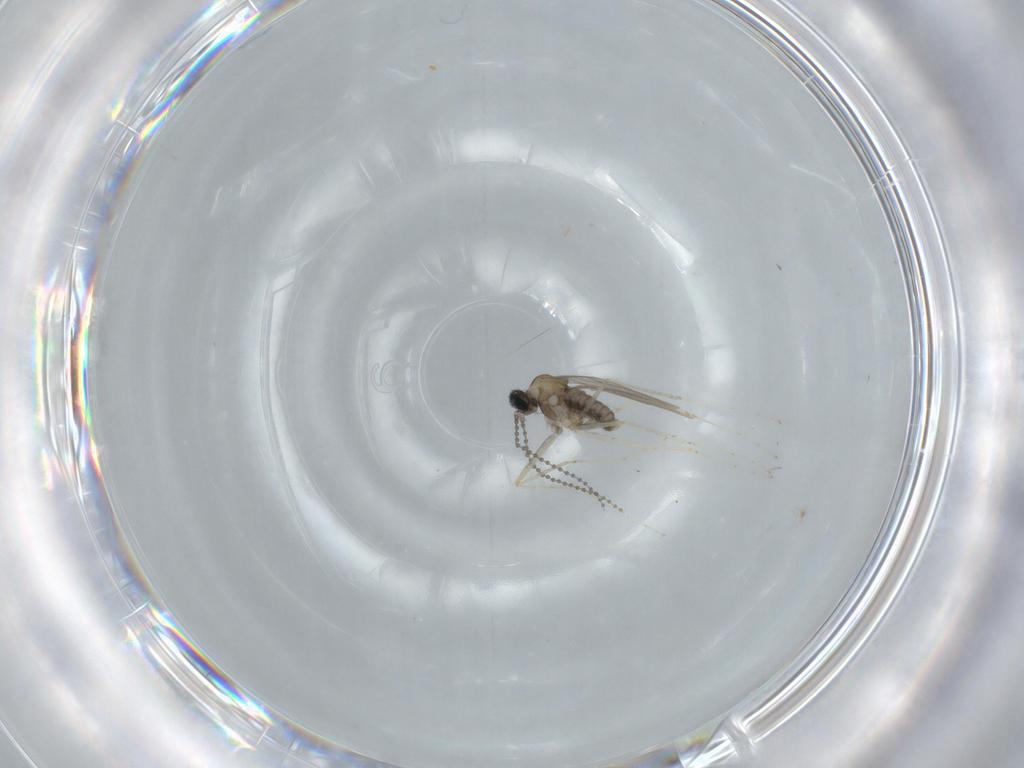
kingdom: Animalia
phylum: Arthropoda
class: Insecta
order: Diptera
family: Cecidomyiidae
